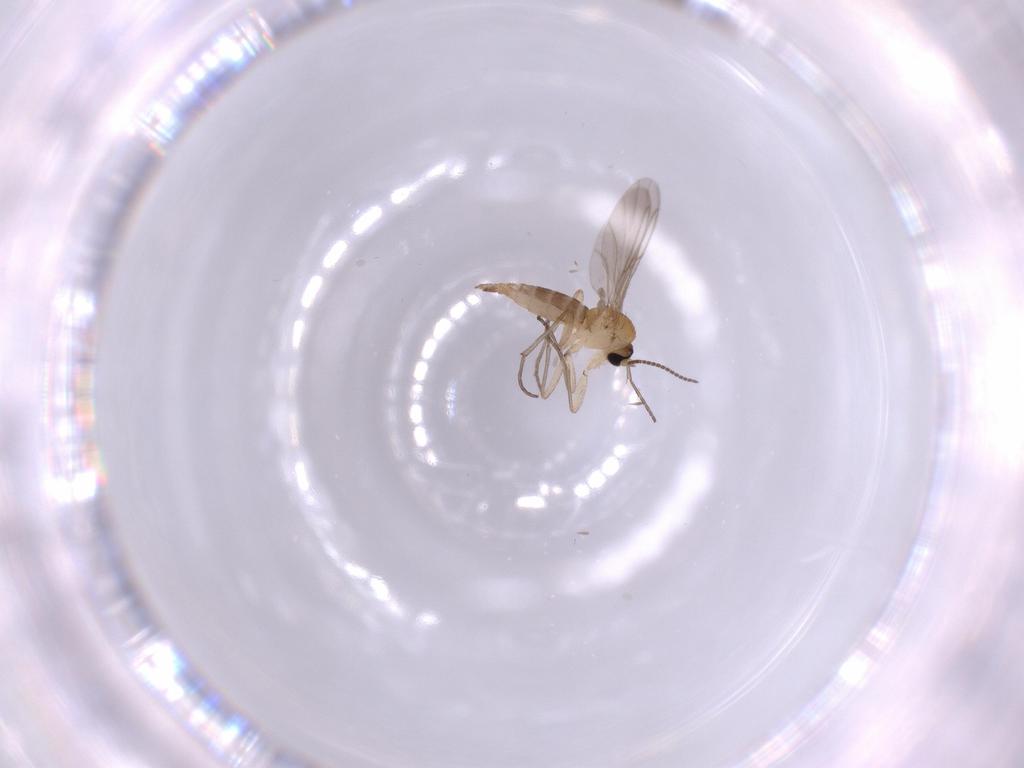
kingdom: Animalia
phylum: Arthropoda
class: Insecta
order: Diptera
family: Sciaridae
